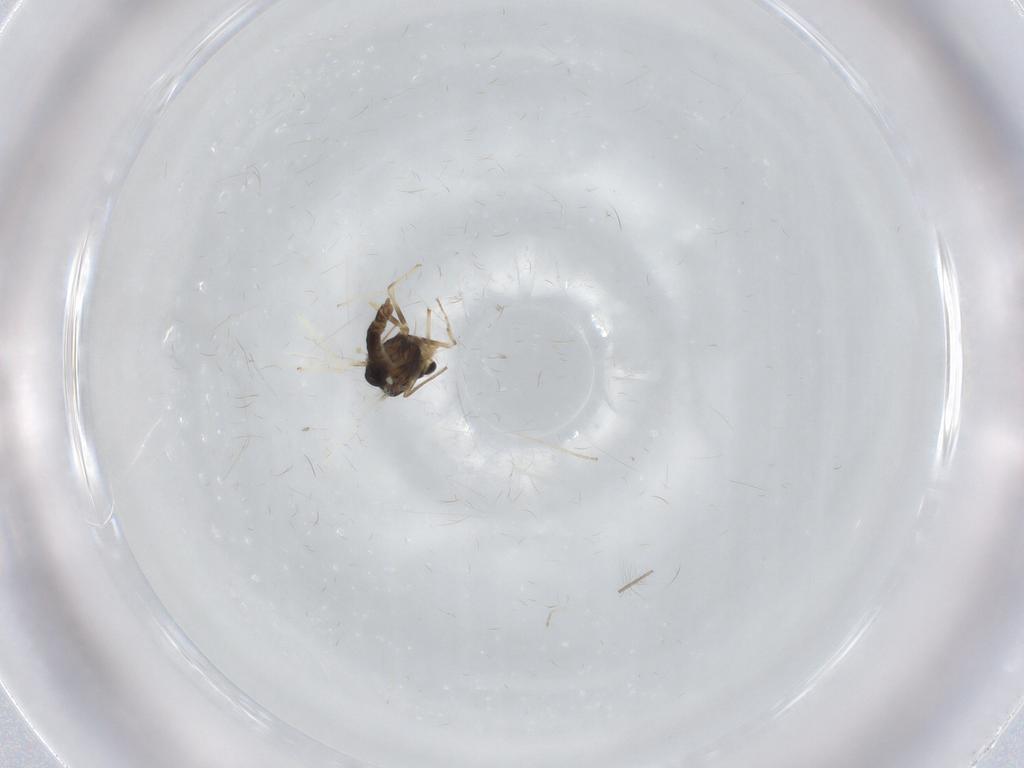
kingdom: Animalia
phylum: Arthropoda
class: Insecta
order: Diptera
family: Chironomidae
